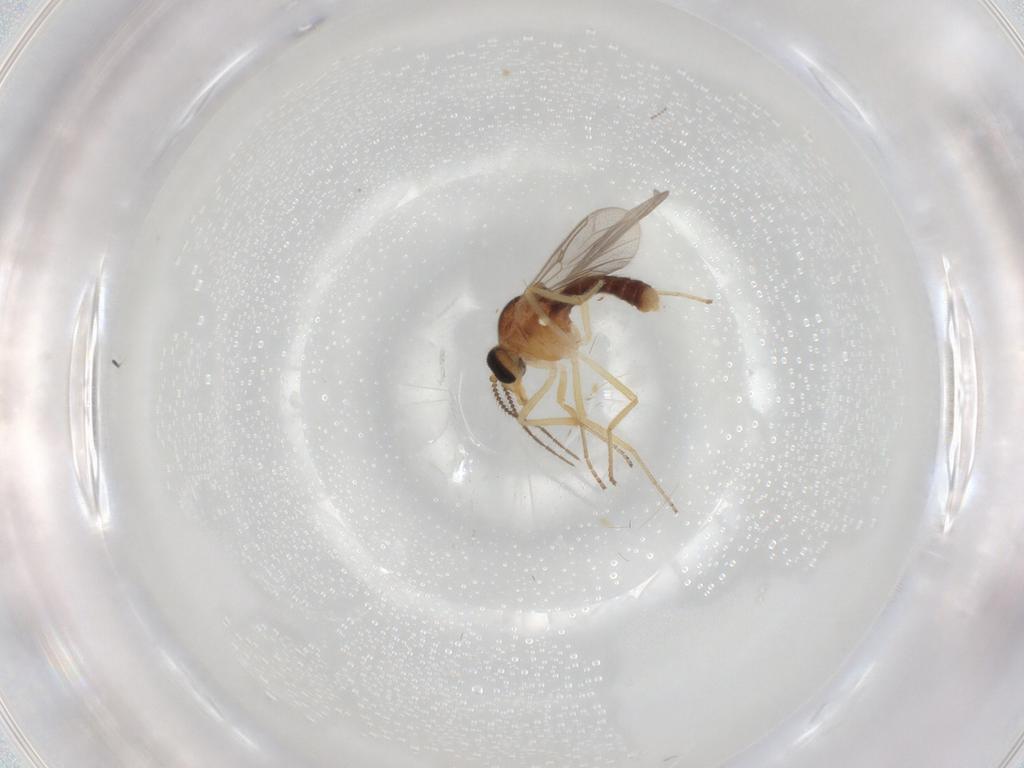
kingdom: Animalia
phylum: Arthropoda
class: Insecta
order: Diptera
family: Ceratopogonidae
